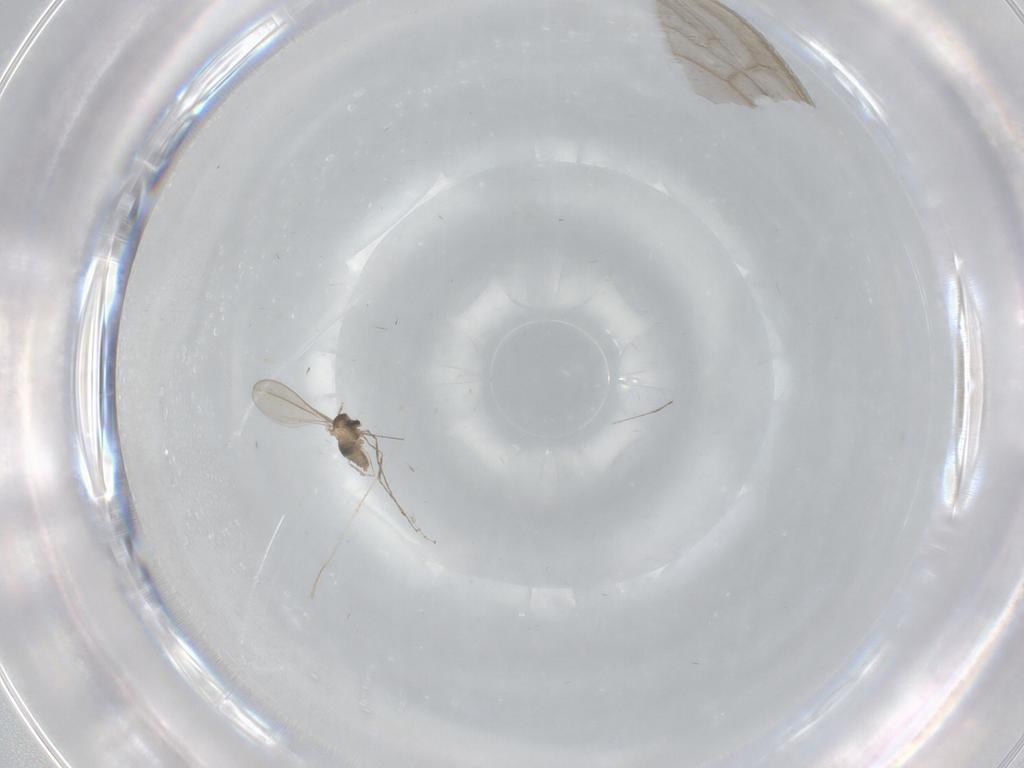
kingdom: Animalia
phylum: Arthropoda
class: Insecta
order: Diptera
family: Cecidomyiidae
